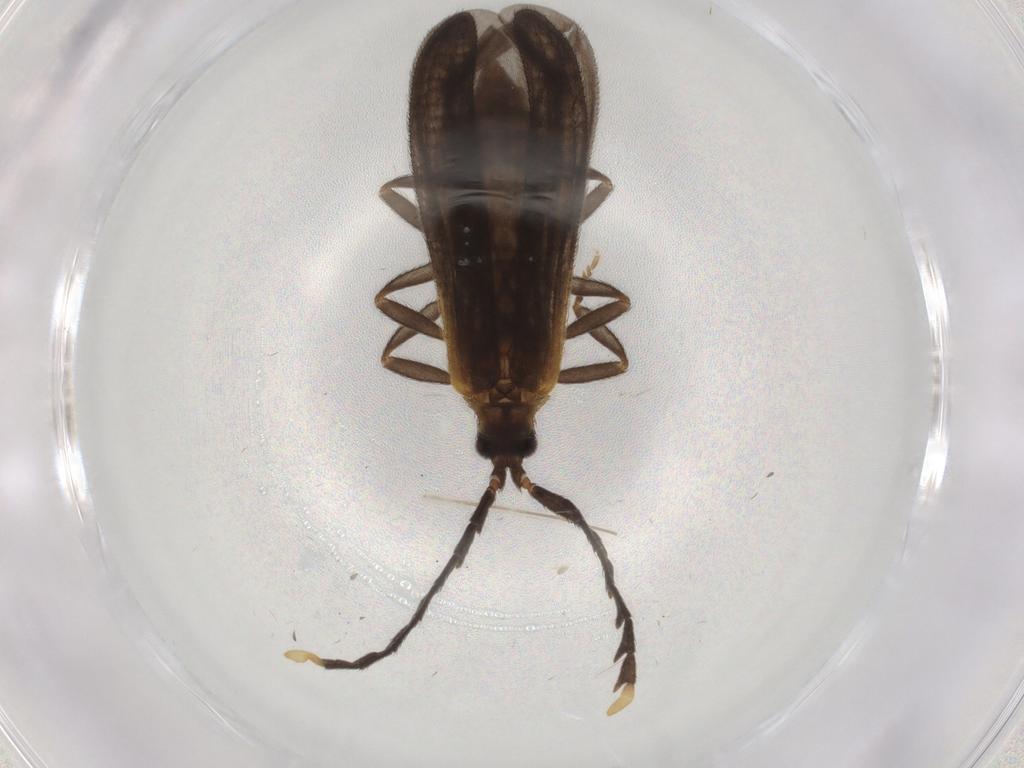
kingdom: Animalia
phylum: Arthropoda
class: Insecta
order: Coleoptera
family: Lycidae
